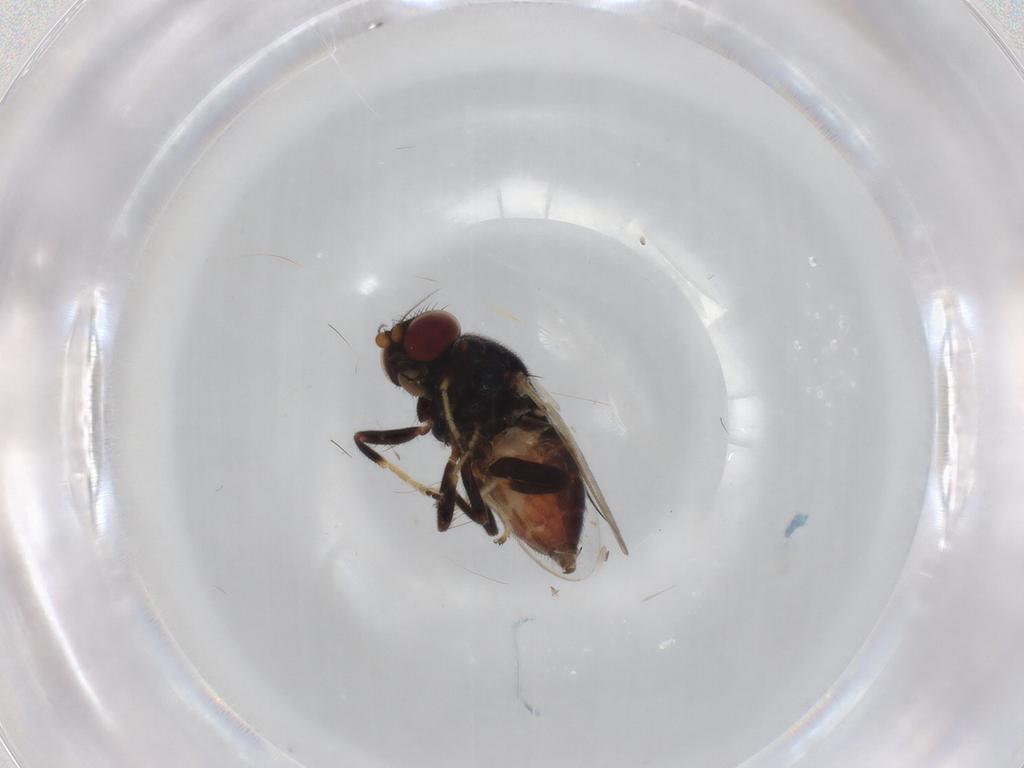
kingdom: Animalia
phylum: Arthropoda
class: Insecta
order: Diptera
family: Chloropidae
